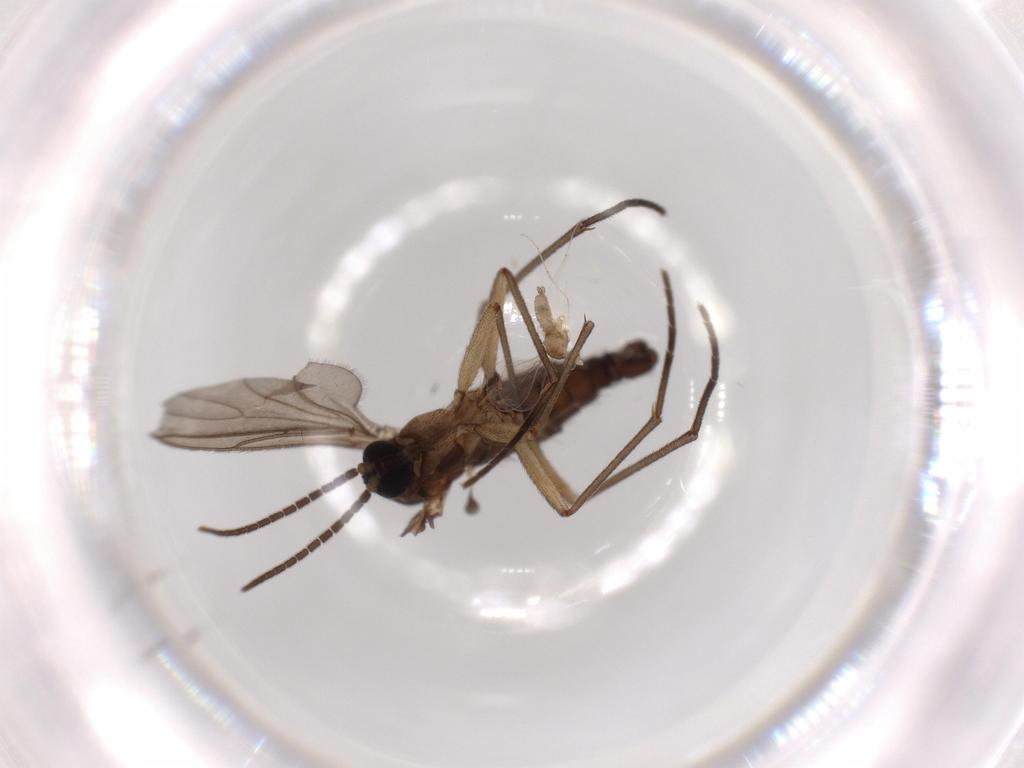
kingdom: Animalia
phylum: Arthropoda
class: Insecta
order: Diptera
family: Sciaridae
